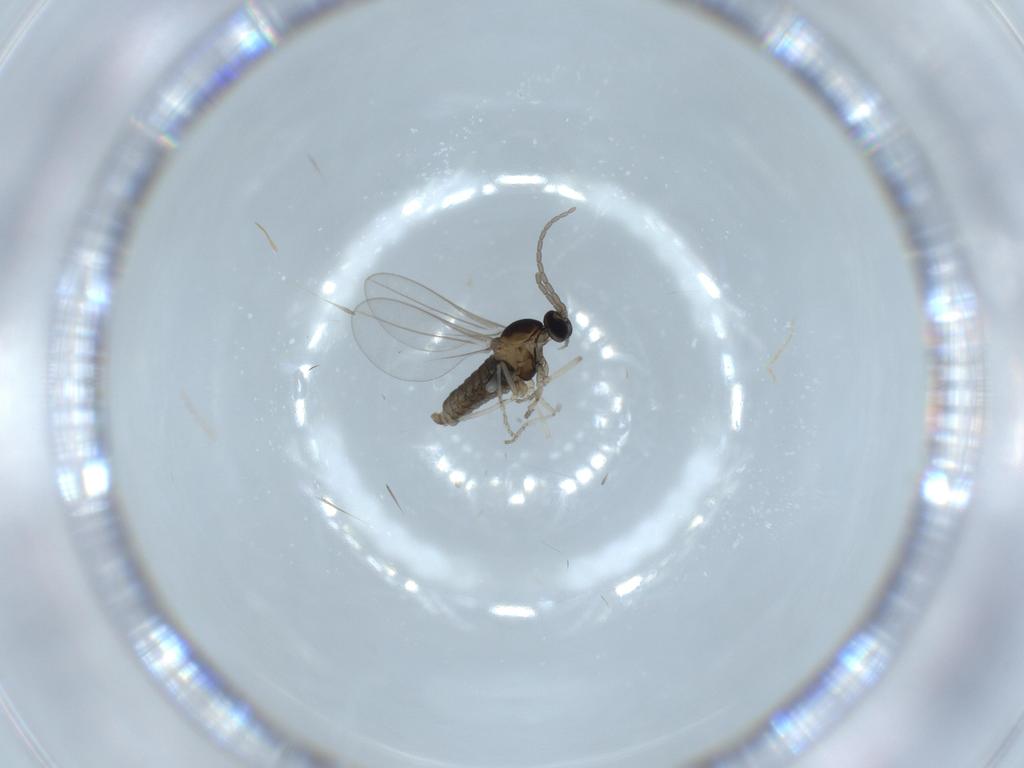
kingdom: Animalia
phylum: Arthropoda
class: Insecta
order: Diptera
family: Cecidomyiidae
